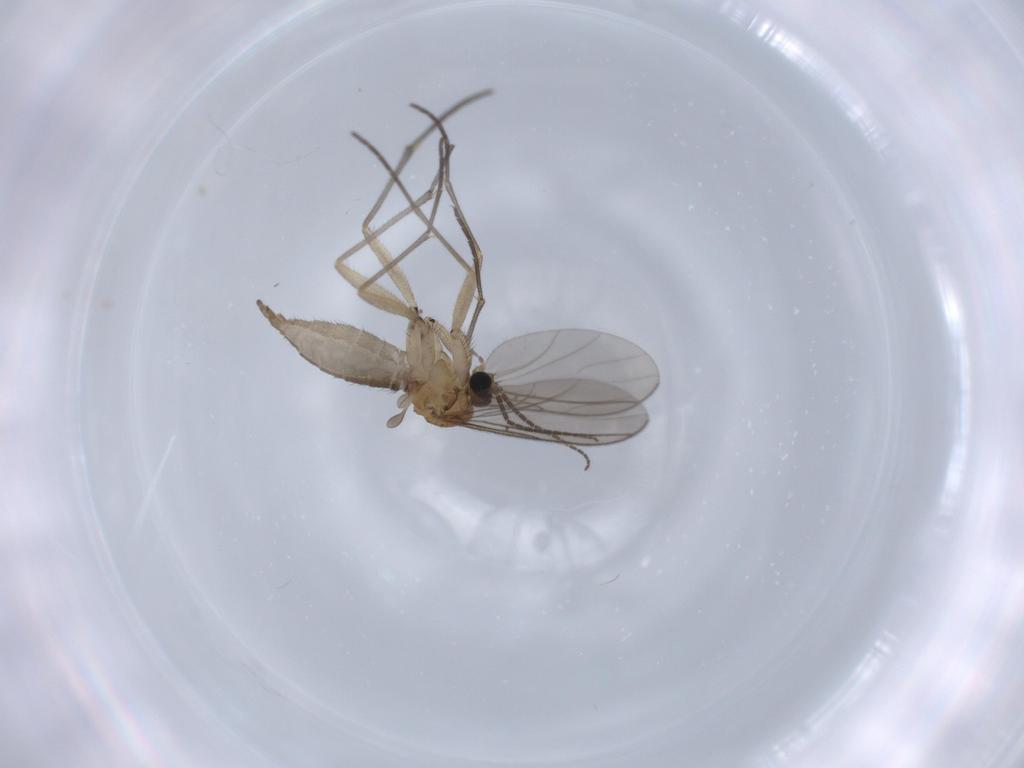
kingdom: Animalia
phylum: Arthropoda
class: Insecta
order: Diptera
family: Sciaridae
